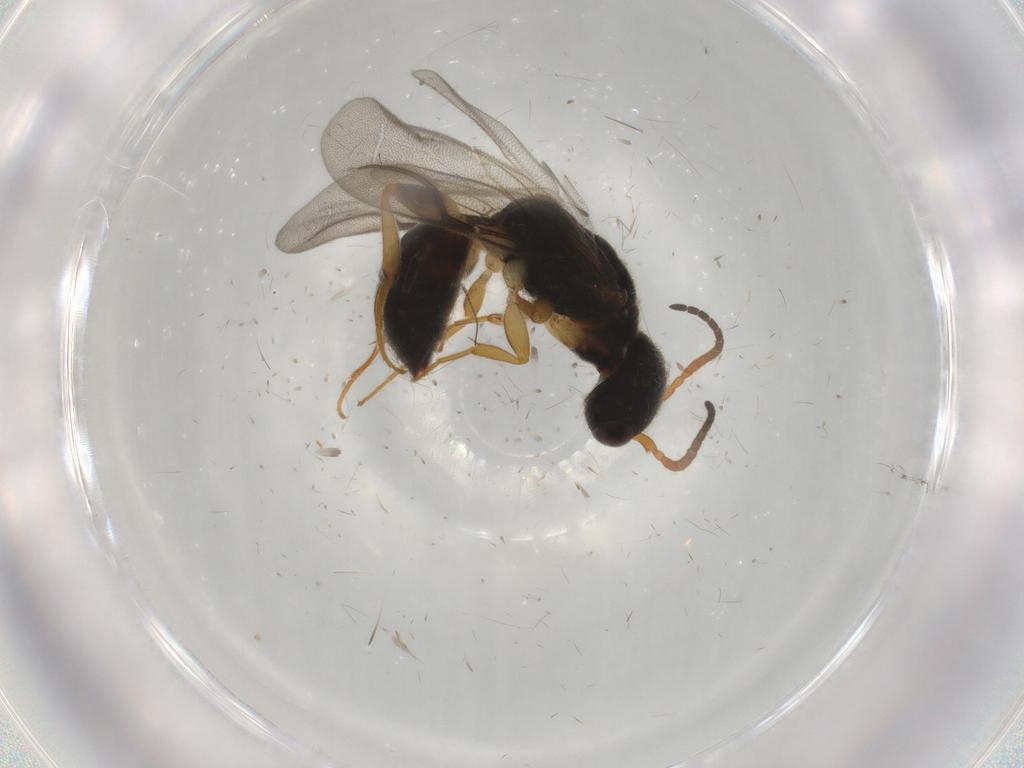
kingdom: Animalia
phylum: Arthropoda
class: Insecta
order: Hymenoptera
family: Bethylidae
